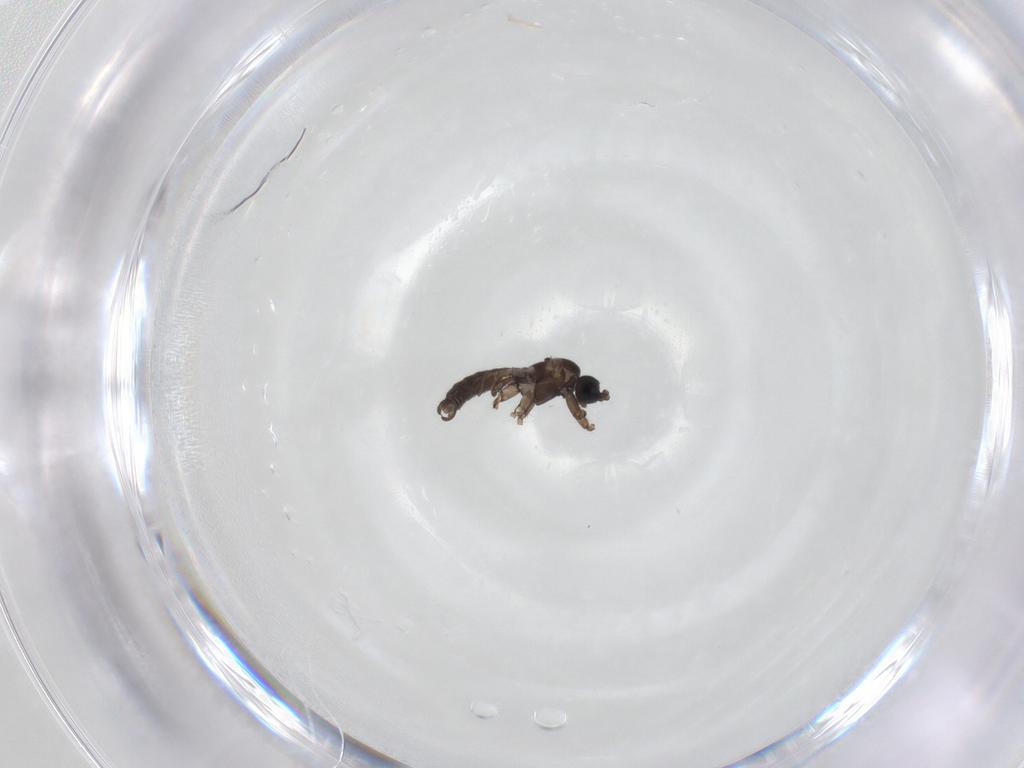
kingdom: Animalia
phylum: Arthropoda
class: Insecta
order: Diptera
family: Sciaridae
